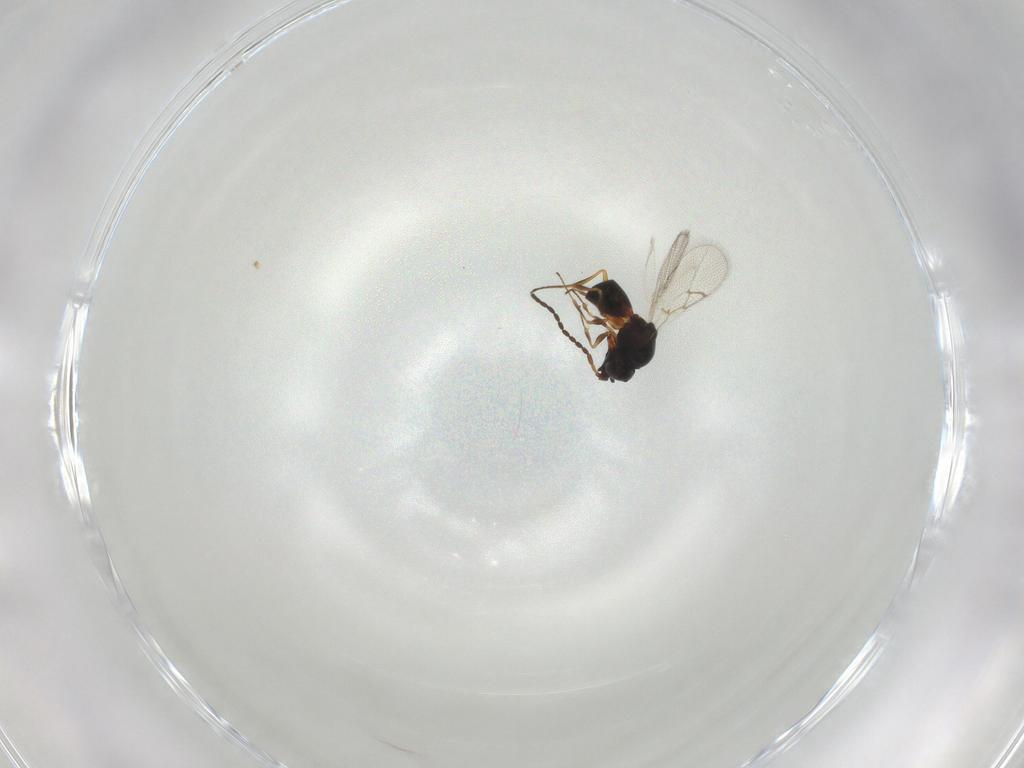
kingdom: Animalia
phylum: Arthropoda
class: Insecta
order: Hymenoptera
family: Figitidae
